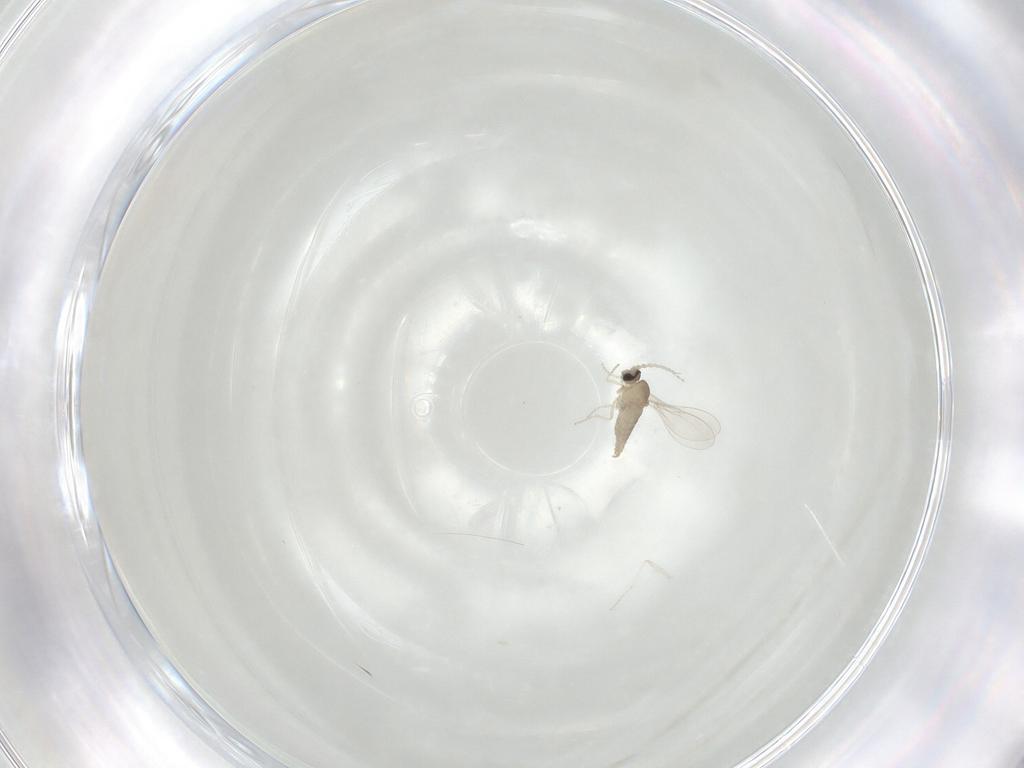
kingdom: Animalia
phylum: Arthropoda
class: Insecta
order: Diptera
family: Cecidomyiidae
